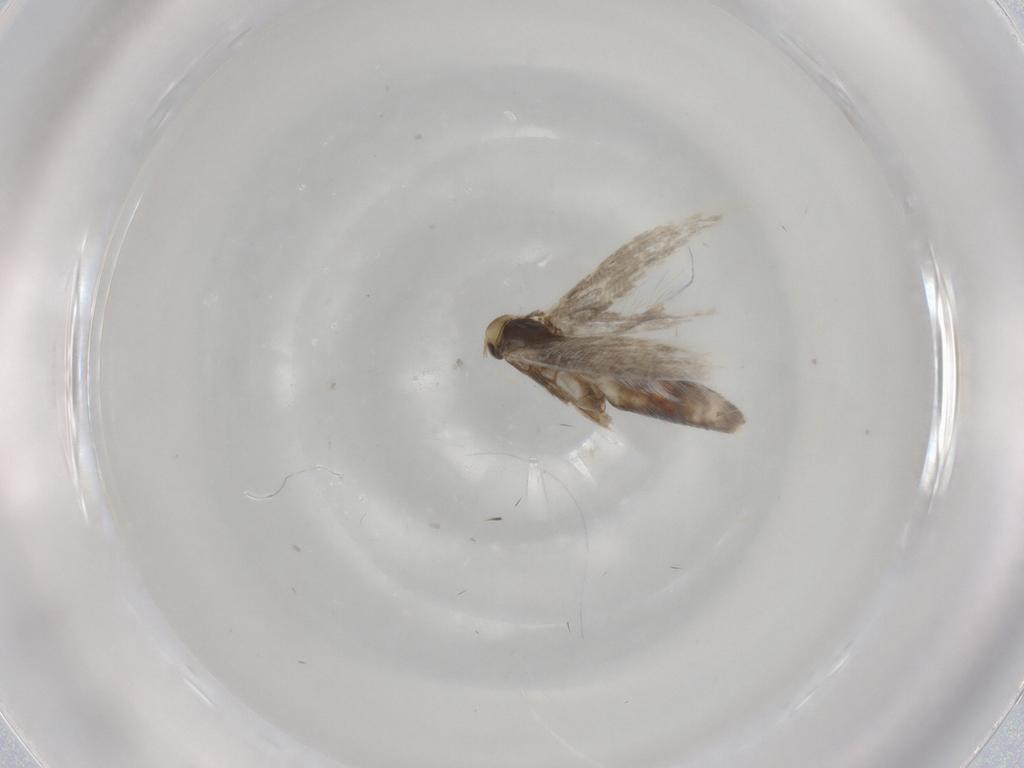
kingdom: Animalia
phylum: Arthropoda
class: Insecta
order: Lepidoptera
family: Gracillariidae
